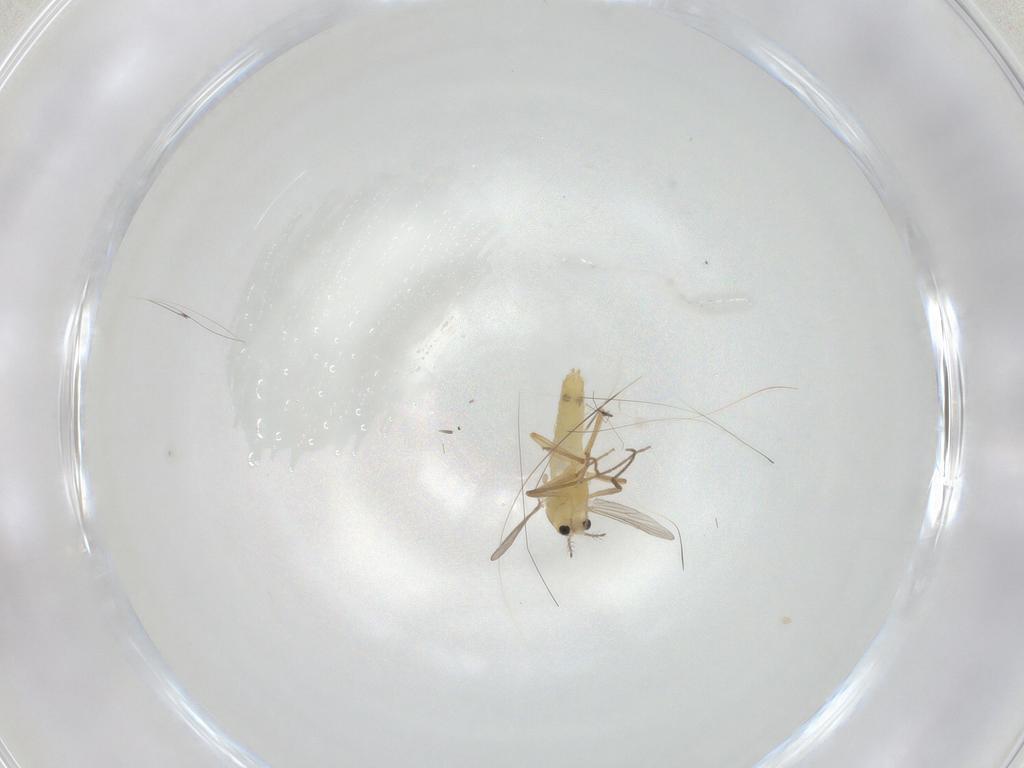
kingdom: Animalia
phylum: Arthropoda
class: Insecta
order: Diptera
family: Chironomidae
